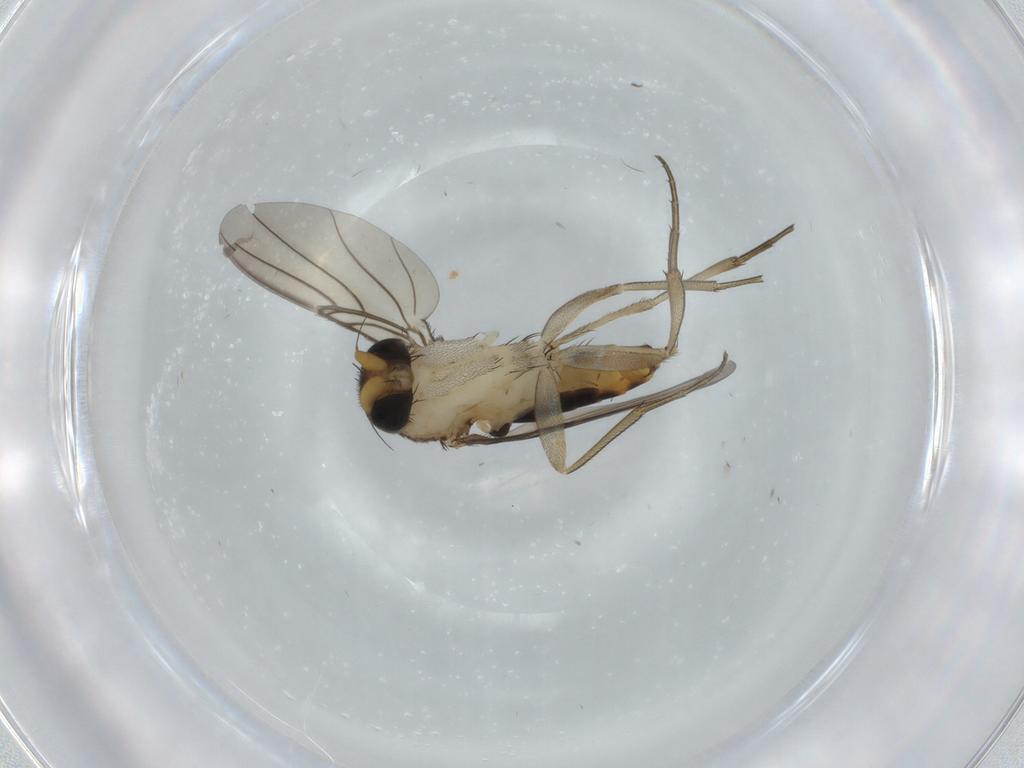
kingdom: Animalia
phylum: Arthropoda
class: Insecta
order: Diptera
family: Phoridae
